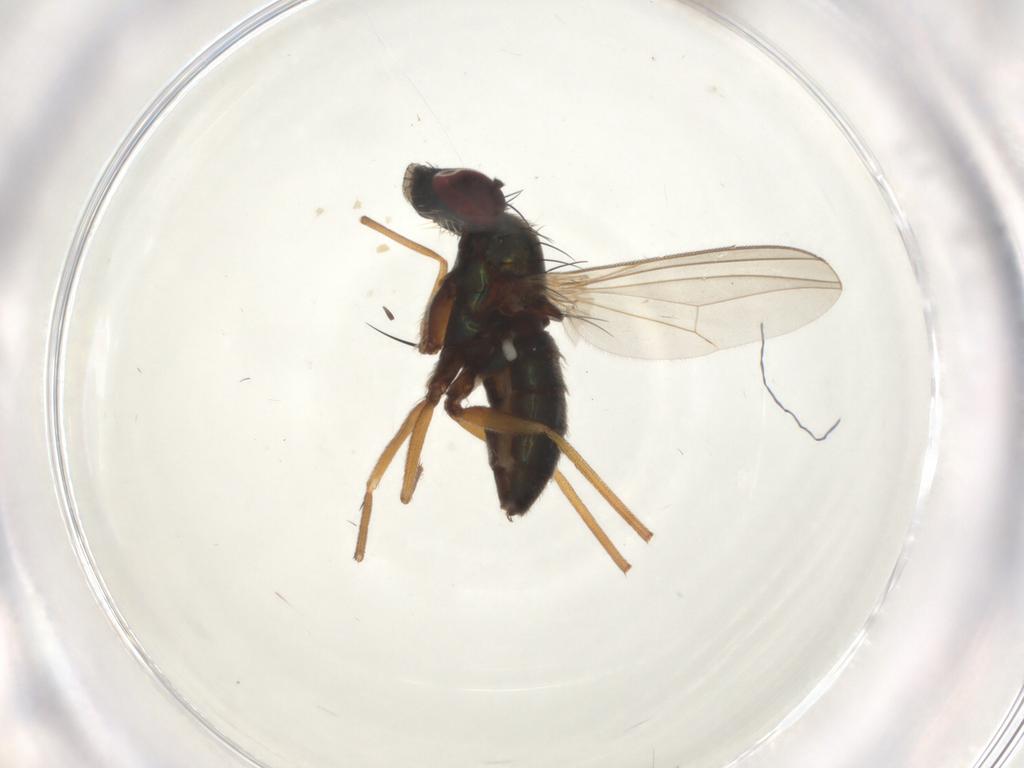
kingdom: Animalia
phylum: Arthropoda
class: Insecta
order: Diptera
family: Dolichopodidae
